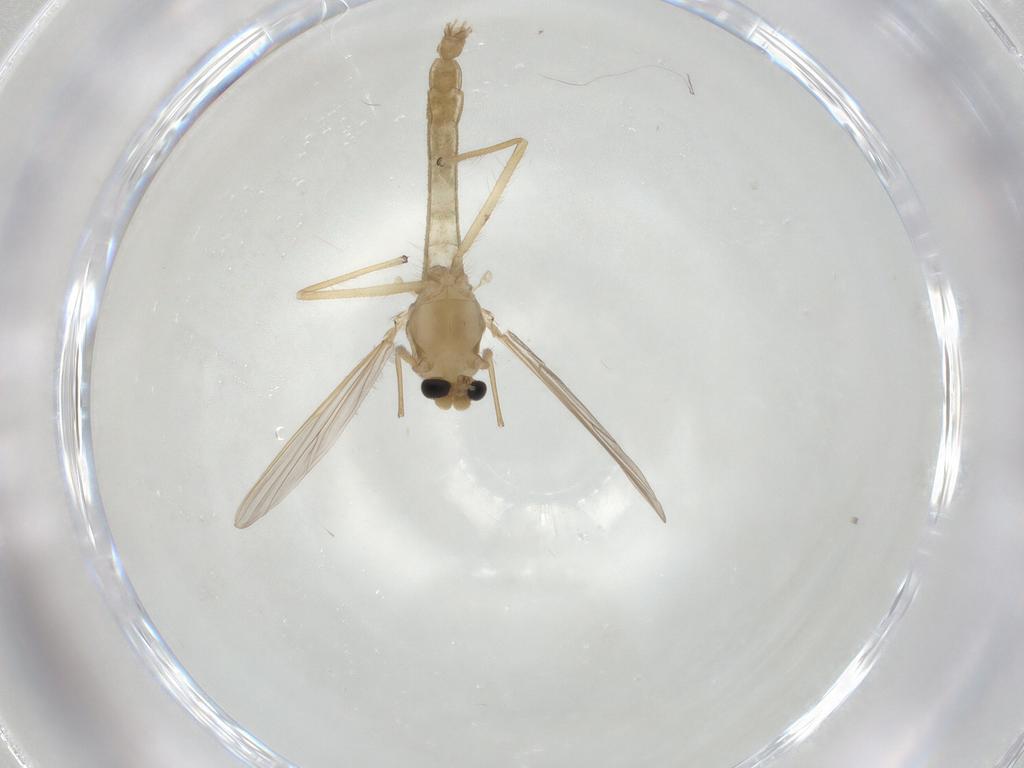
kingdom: Animalia
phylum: Arthropoda
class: Insecta
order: Diptera
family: Chironomidae
